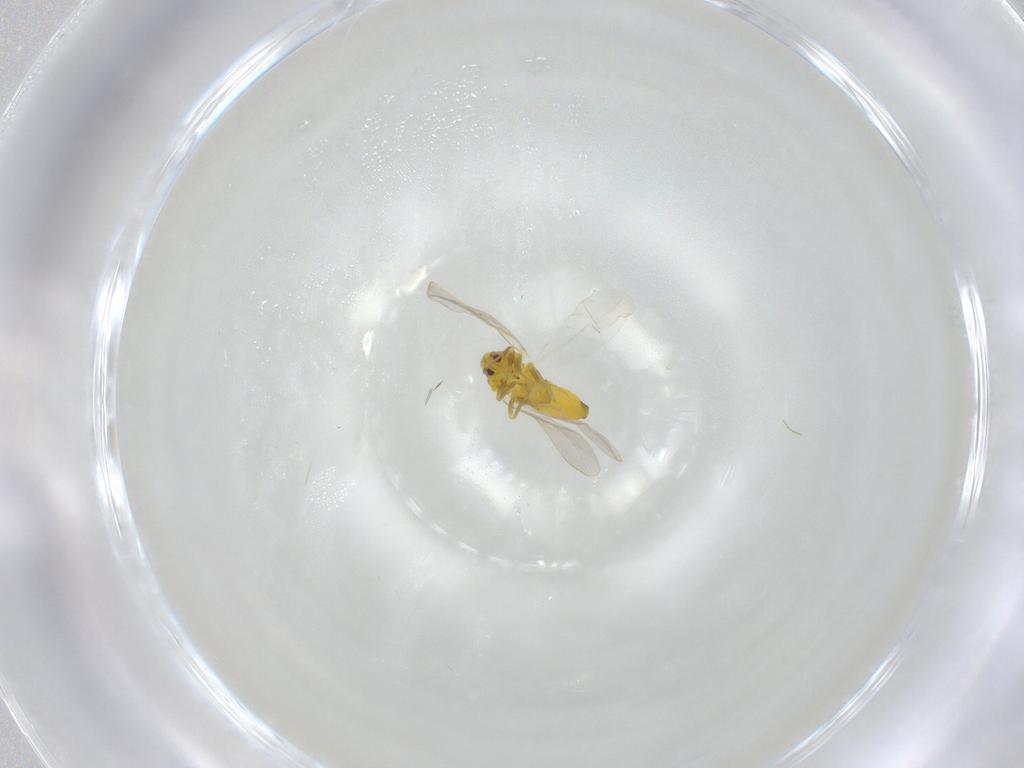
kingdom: Animalia
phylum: Arthropoda
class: Insecta
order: Hemiptera
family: Aleyrodidae
